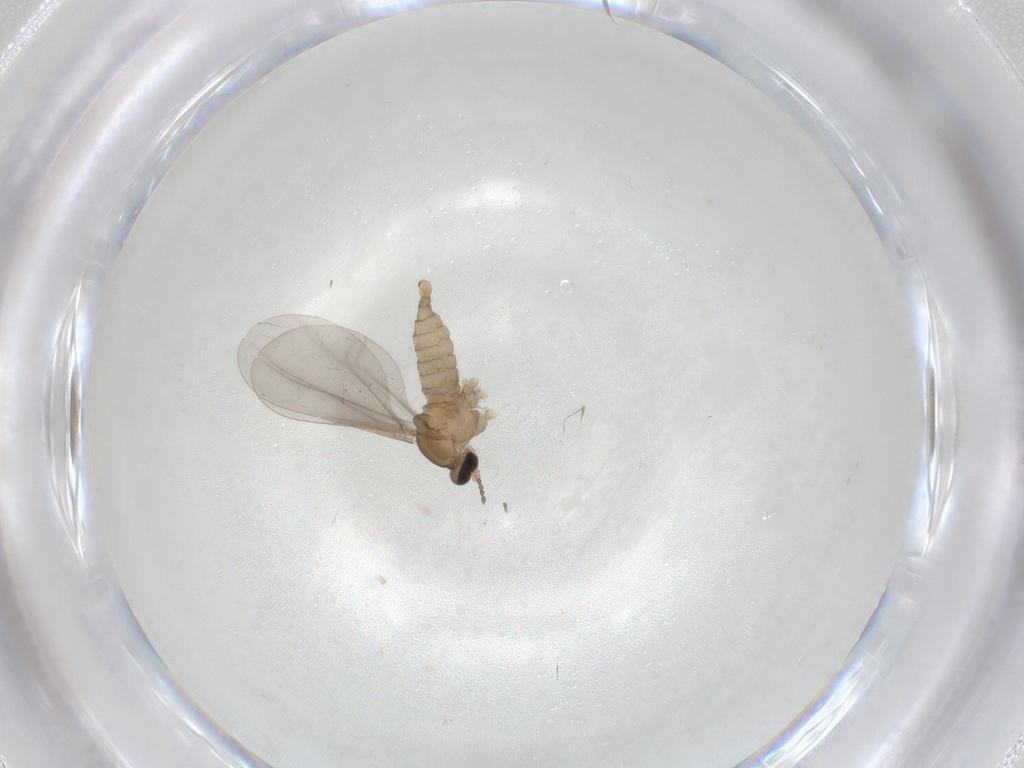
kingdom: Animalia
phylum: Arthropoda
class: Insecta
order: Diptera
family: Cecidomyiidae
